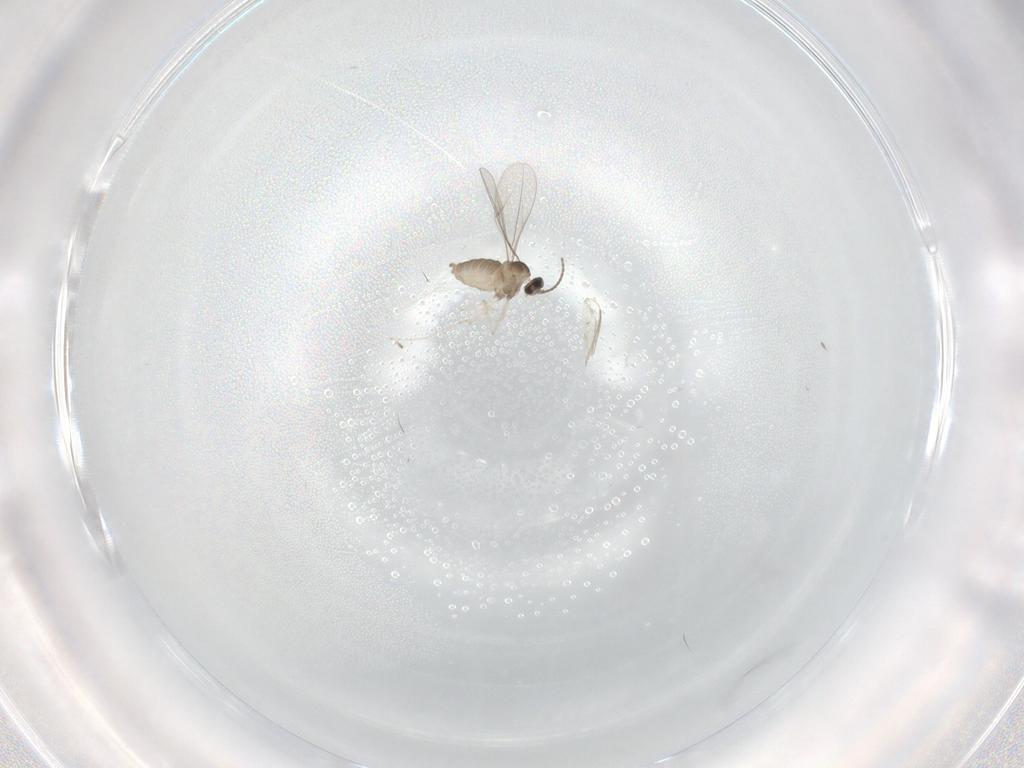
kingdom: Animalia
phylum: Arthropoda
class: Insecta
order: Diptera
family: Cecidomyiidae
